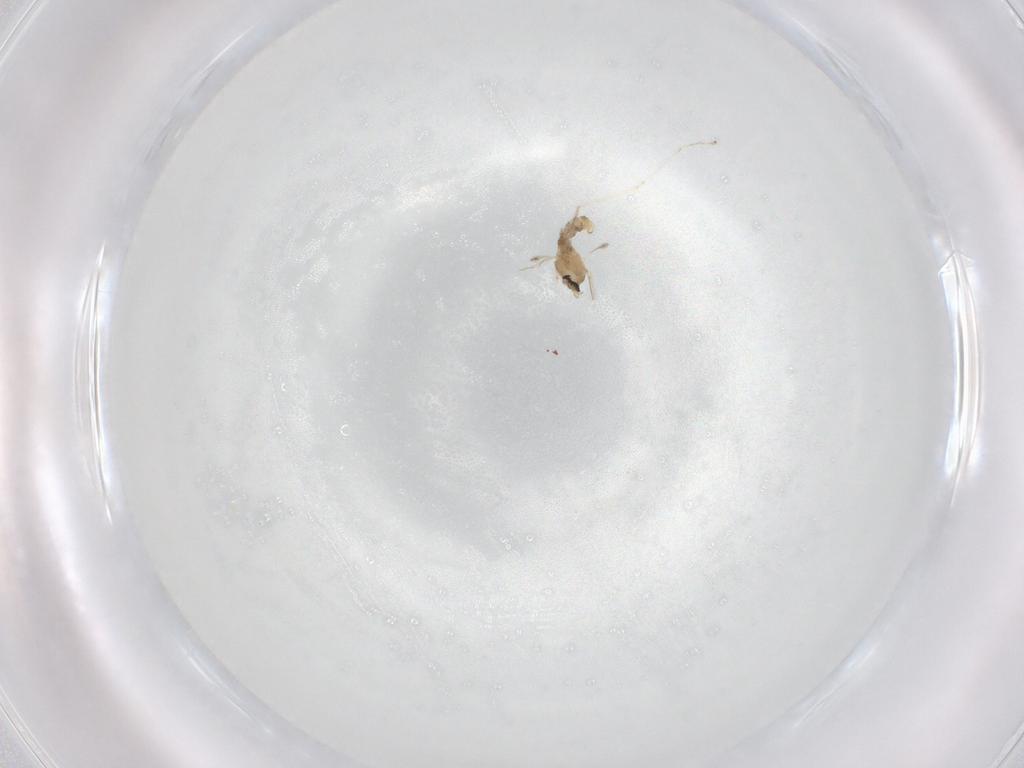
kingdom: Animalia
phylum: Arthropoda
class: Insecta
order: Diptera
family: Cecidomyiidae
